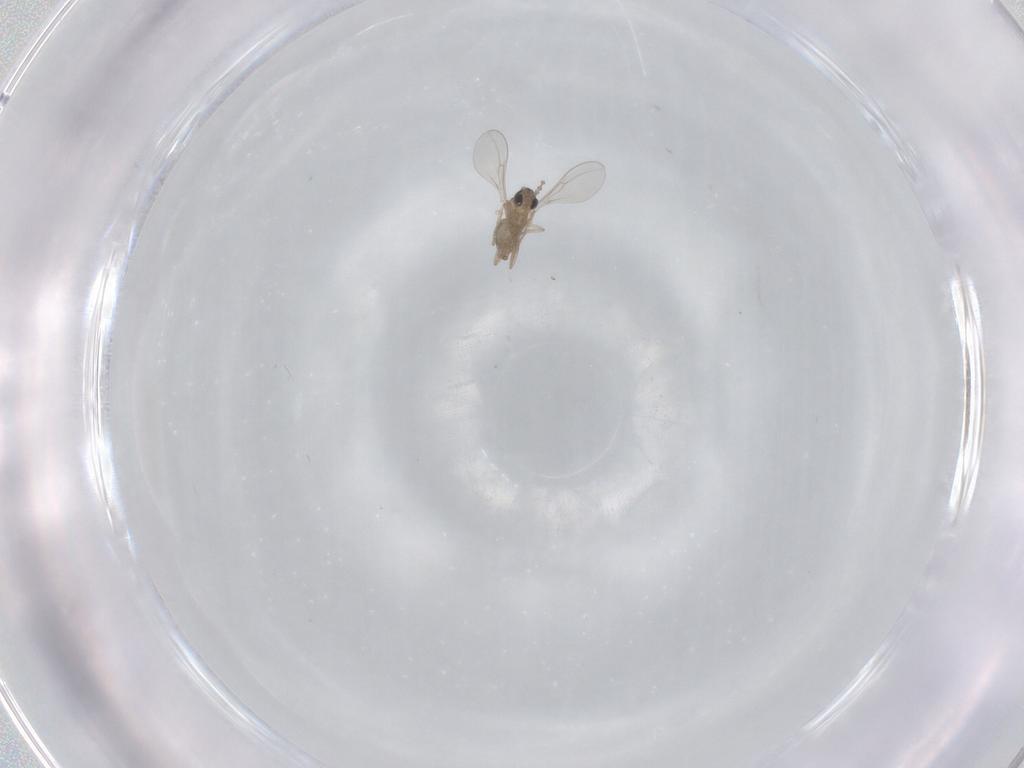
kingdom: Animalia
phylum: Arthropoda
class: Insecta
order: Diptera
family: Cecidomyiidae
